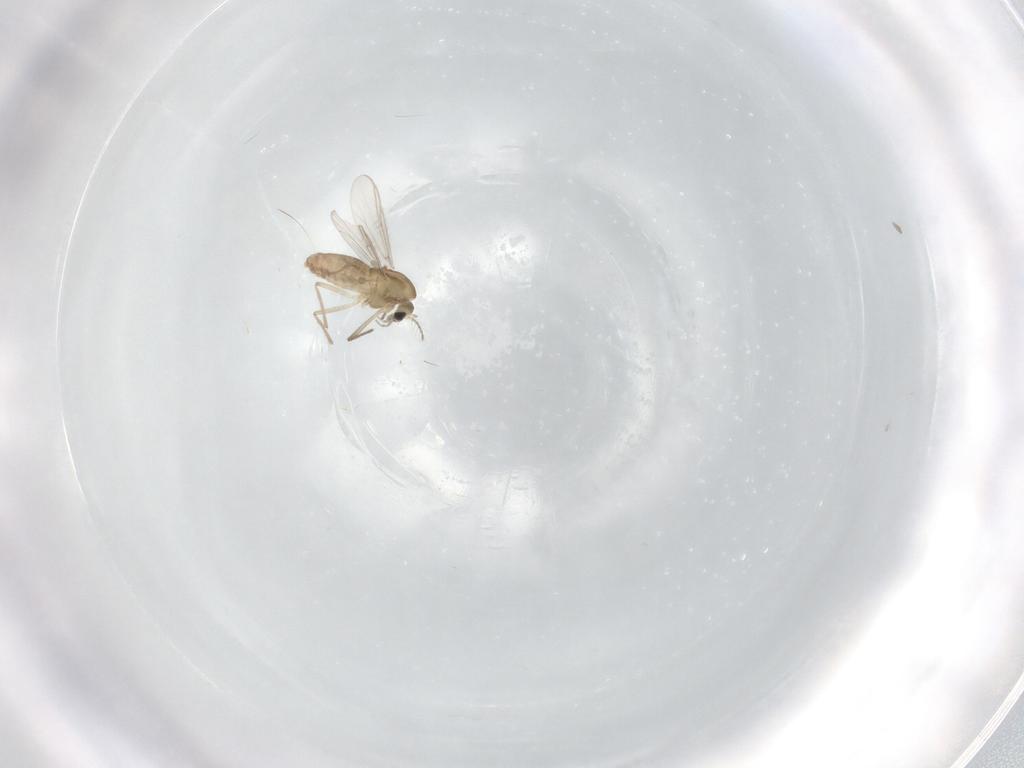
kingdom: Animalia
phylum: Arthropoda
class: Insecta
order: Diptera
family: Chironomidae
